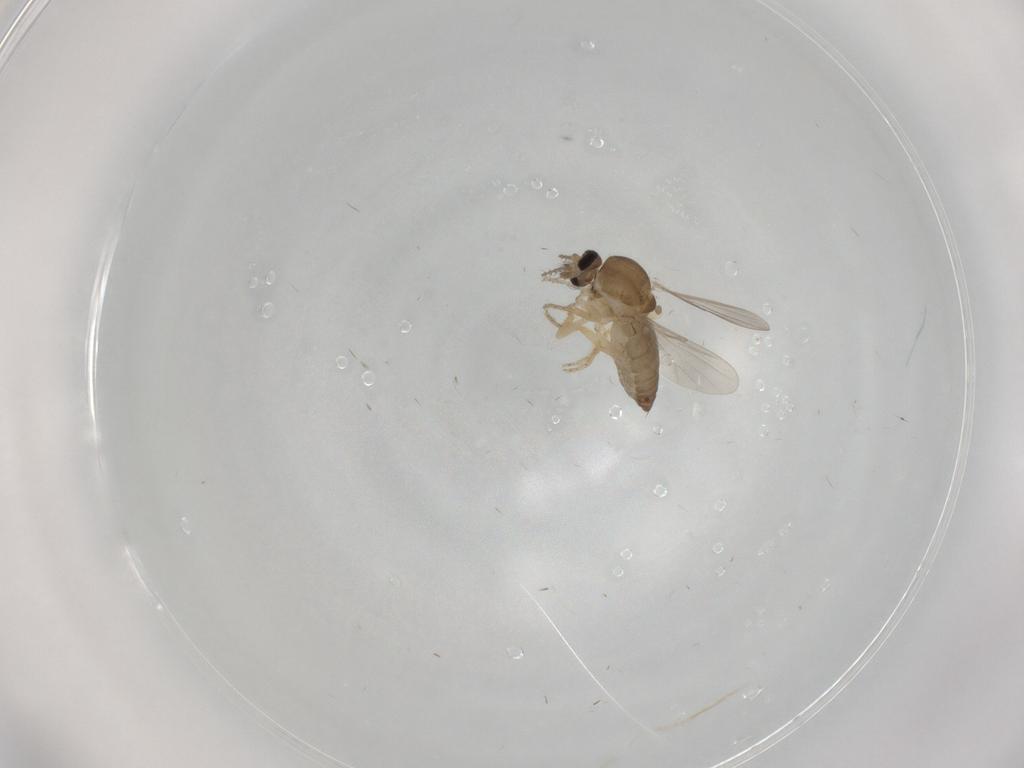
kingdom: Animalia
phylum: Arthropoda
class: Insecta
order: Diptera
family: Ceratopogonidae
